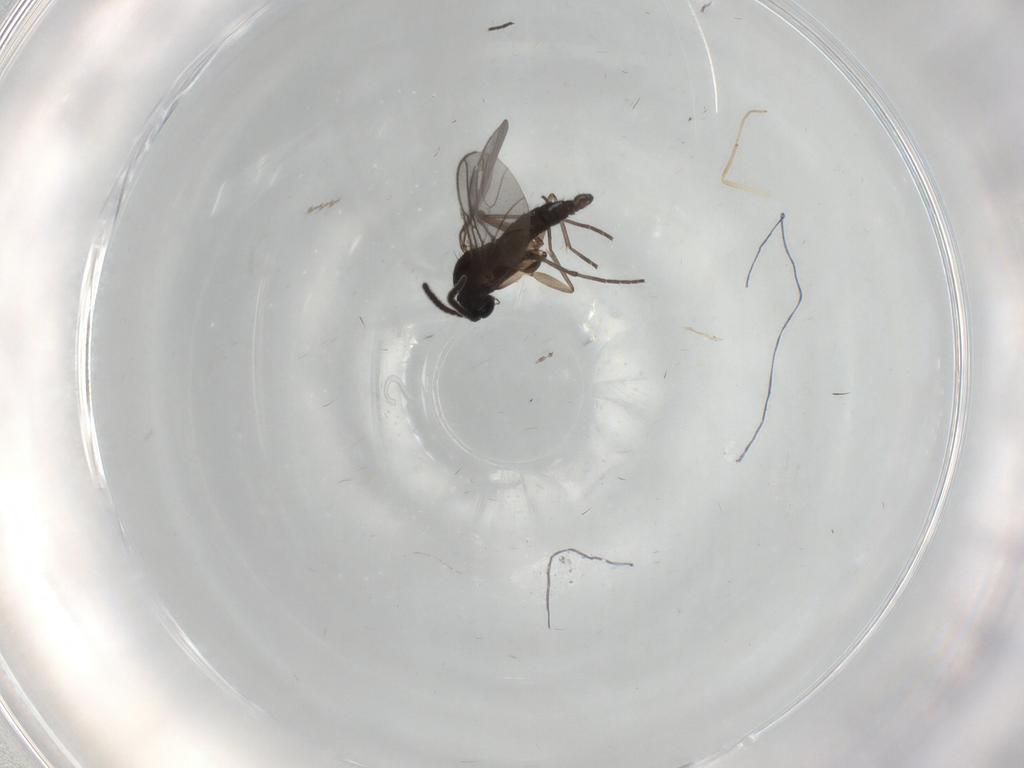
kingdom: Animalia
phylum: Arthropoda
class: Insecta
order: Diptera
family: Sciaridae
